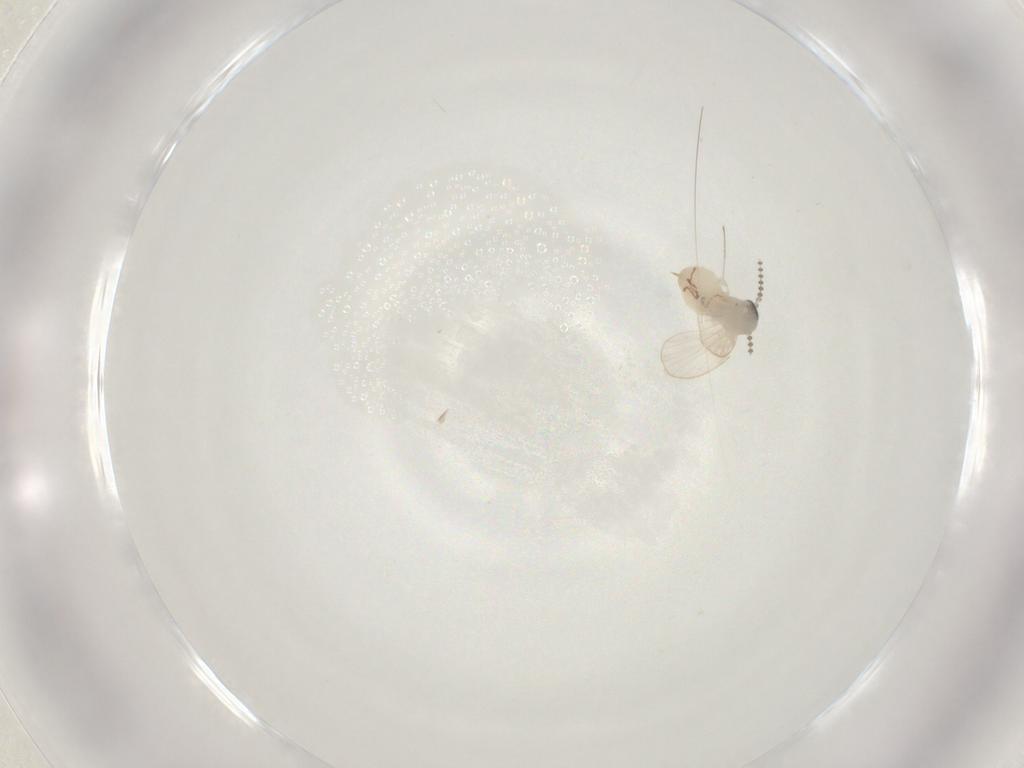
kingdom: Animalia
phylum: Arthropoda
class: Insecta
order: Diptera
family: Psychodidae
